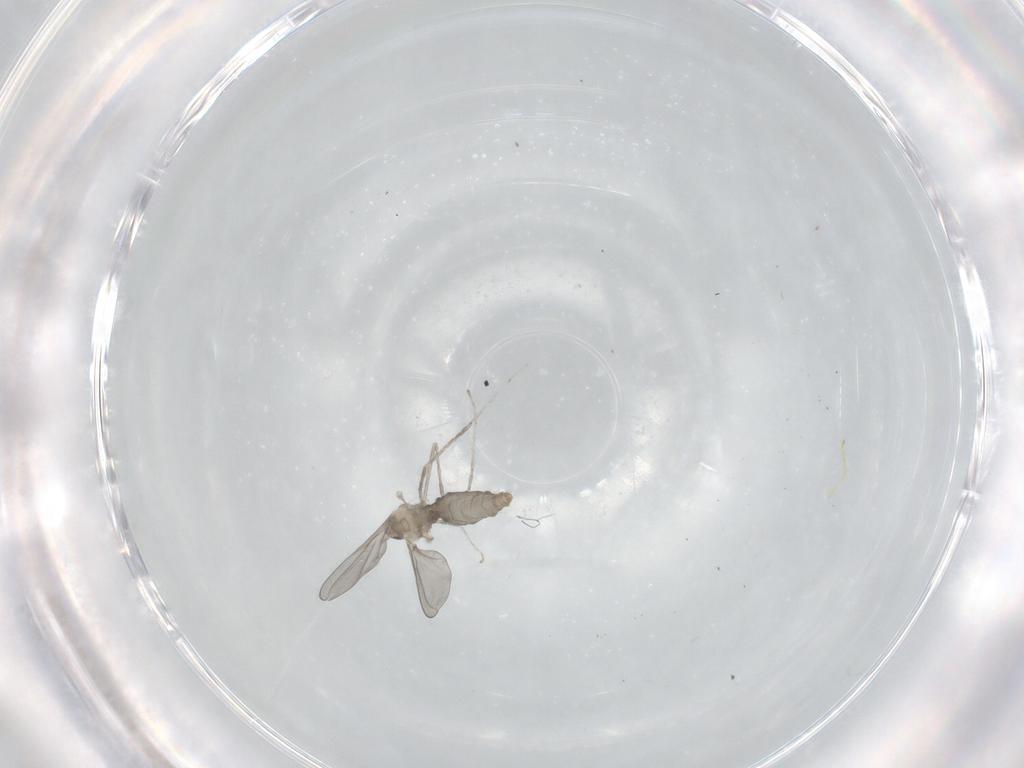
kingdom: Animalia
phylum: Arthropoda
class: Insecta
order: Diptera
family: Cecidomyiidae
